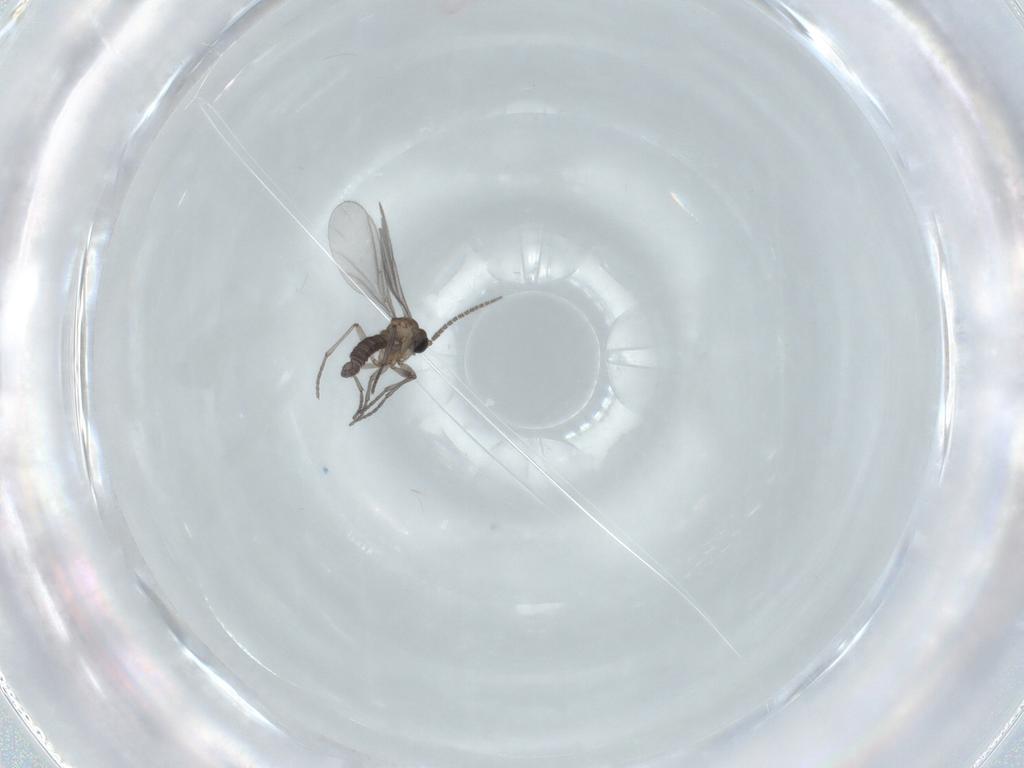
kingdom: Animalia
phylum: Arthropoda
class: Insecta
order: Diptera
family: Sciaridae
